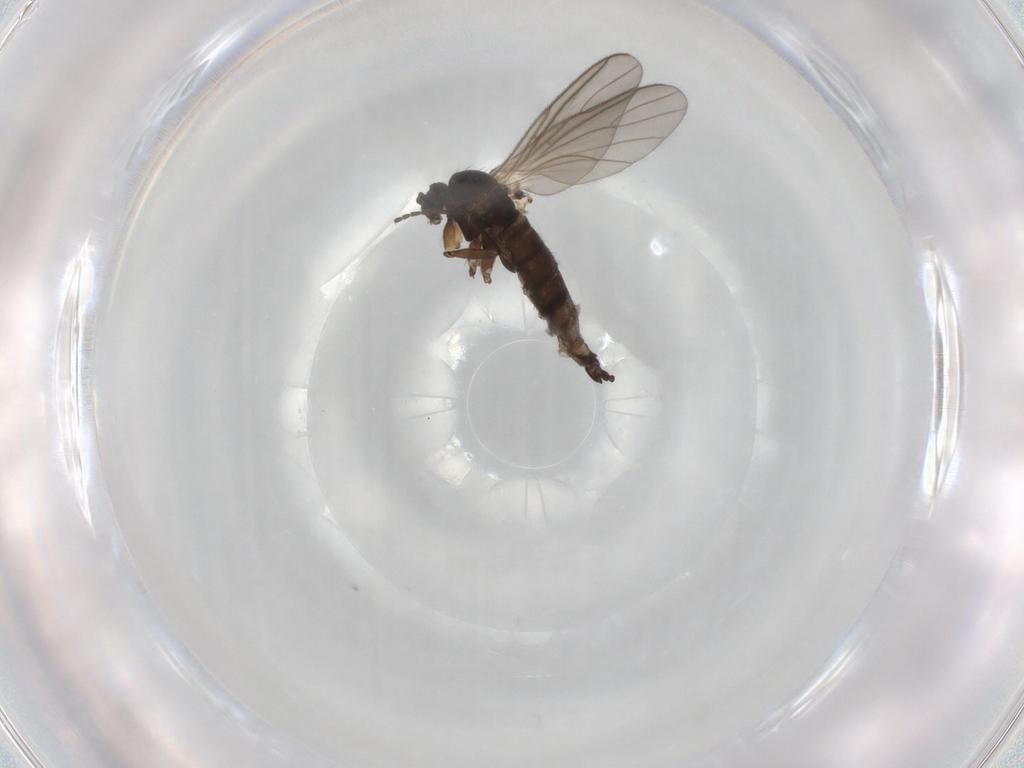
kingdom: Animalia
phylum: Arthropoda
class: Insecta
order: Diptera
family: Sciaridae
